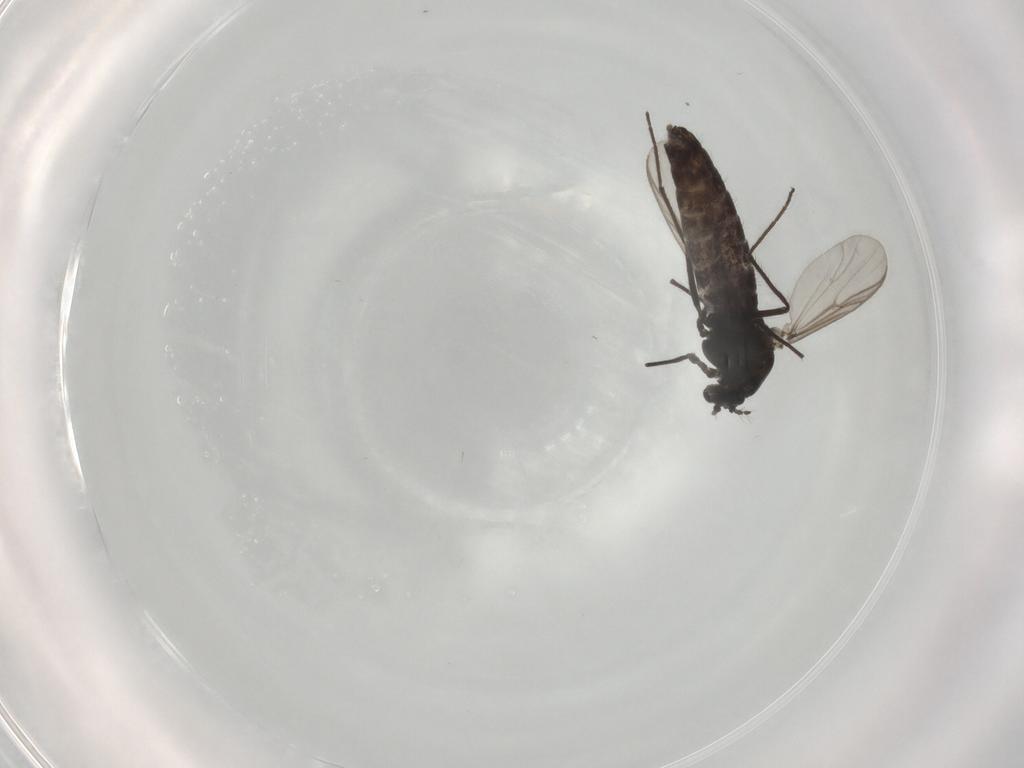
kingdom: Animalia
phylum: Arthropoda
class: Insecta
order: Diptera
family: Chironomidae
